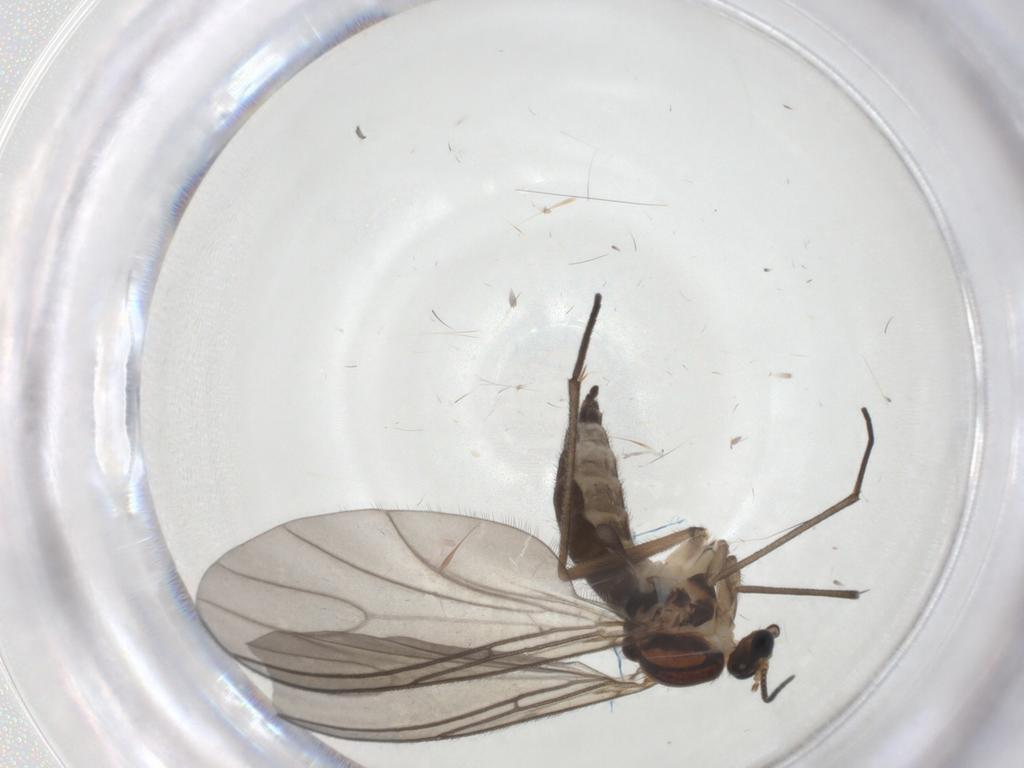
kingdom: Animalia
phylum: Arthropoda
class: Insecta
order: Diptera
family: Sciaridae
